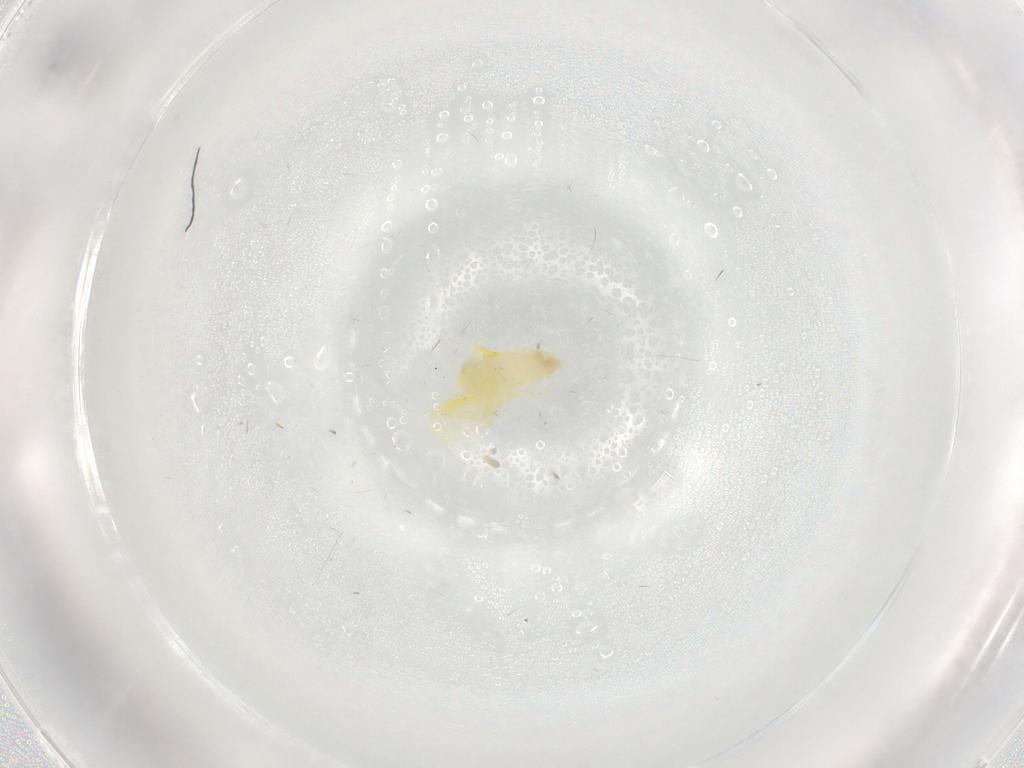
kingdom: Animalia
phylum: Arthropoda
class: Insecta
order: Hemiptera
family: Aleyrodidae
